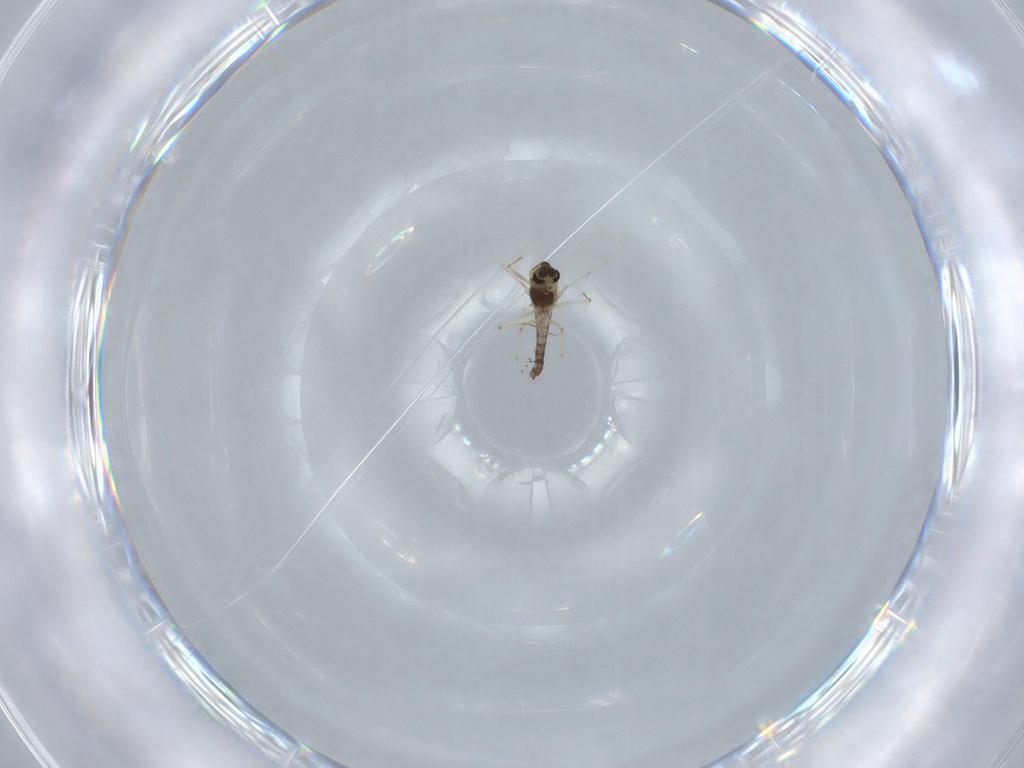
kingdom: Animalia
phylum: Arthropoda
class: Insecta
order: Diptera
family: Chironomidae
